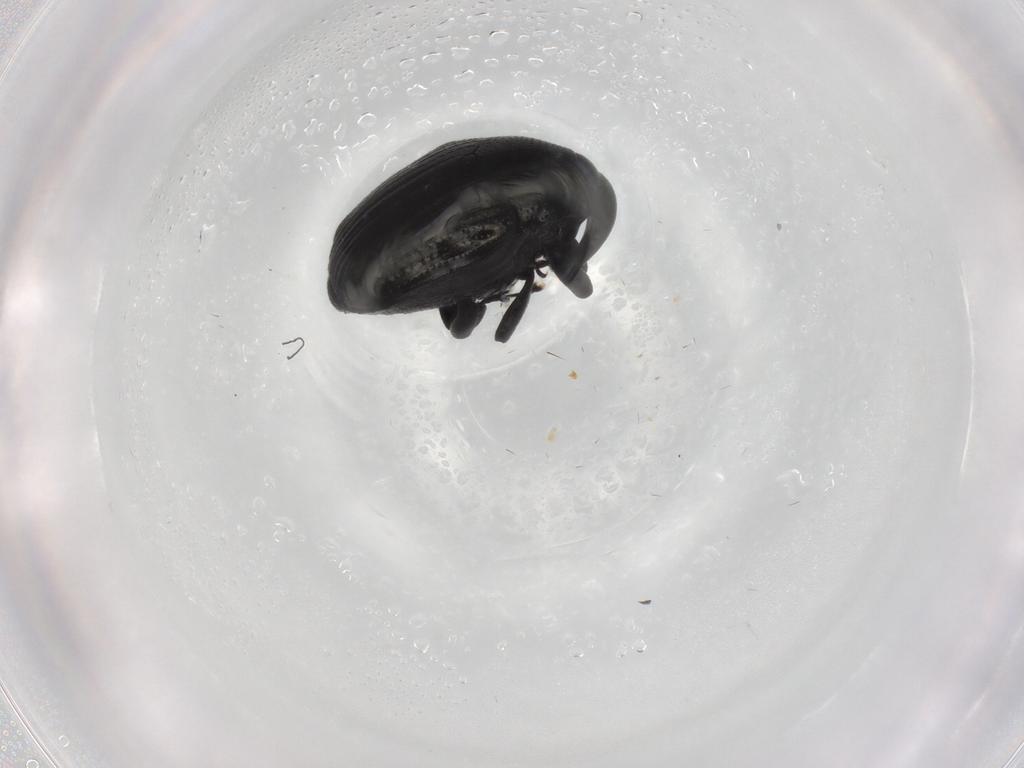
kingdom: Animalia
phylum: Arthropoda
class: Insecta
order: Coleoptera
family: Curculionidae
